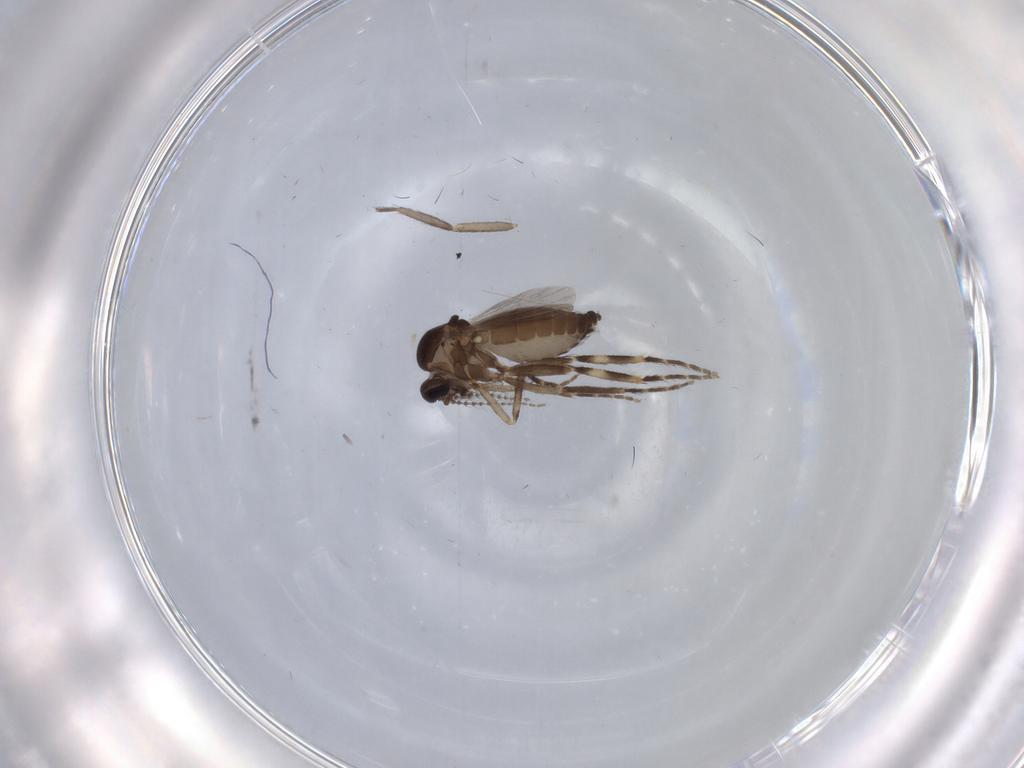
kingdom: Animalia
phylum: Arthropoda
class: Insecta
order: Diptera
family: Ceratopogonidae
